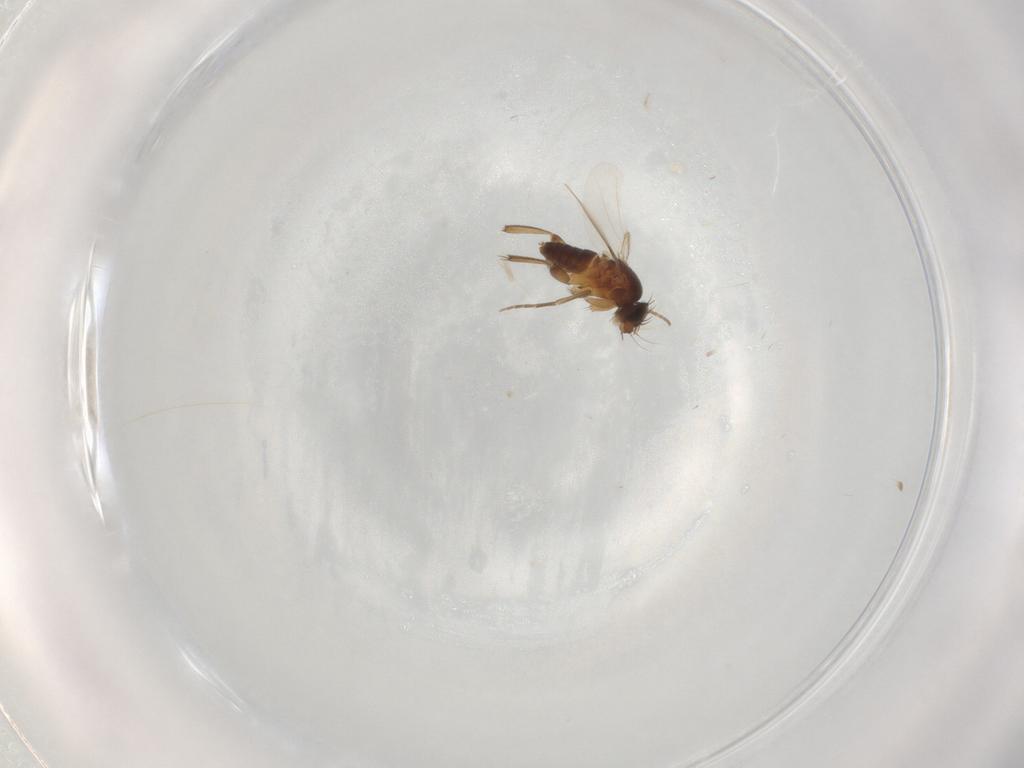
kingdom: Animalia
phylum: Arthropoda
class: Insecta
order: Diptera
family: Phoridae
